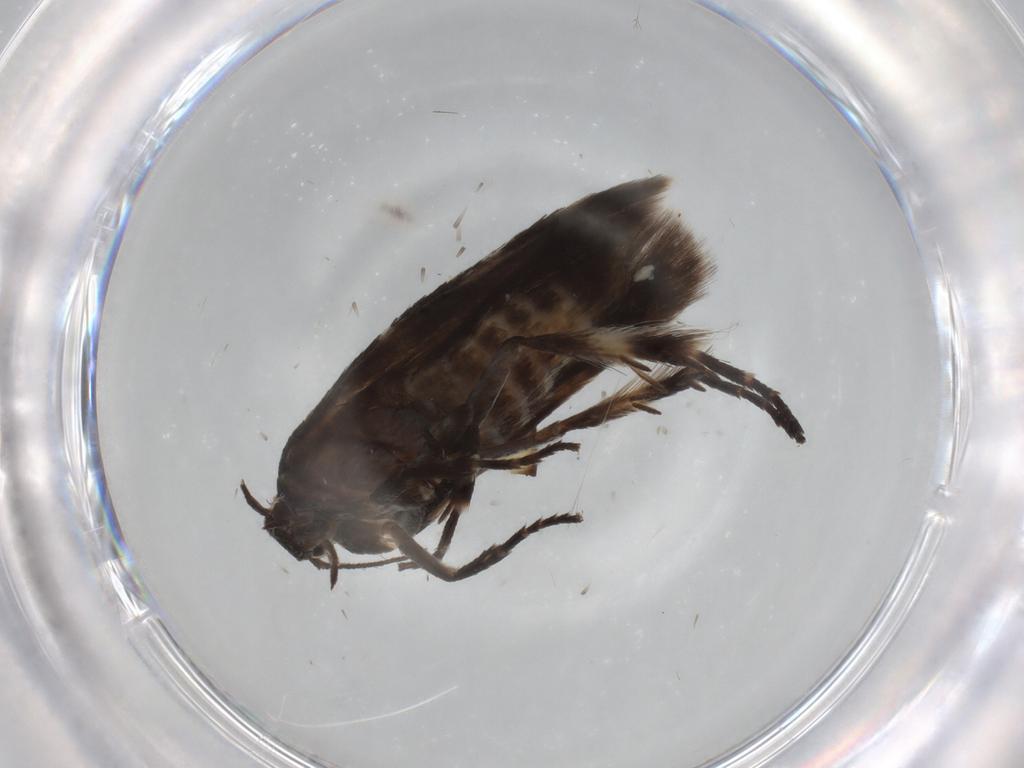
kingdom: Animalia
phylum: Arthropoda
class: Insecta
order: Lepidoptera
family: Scythrididae
